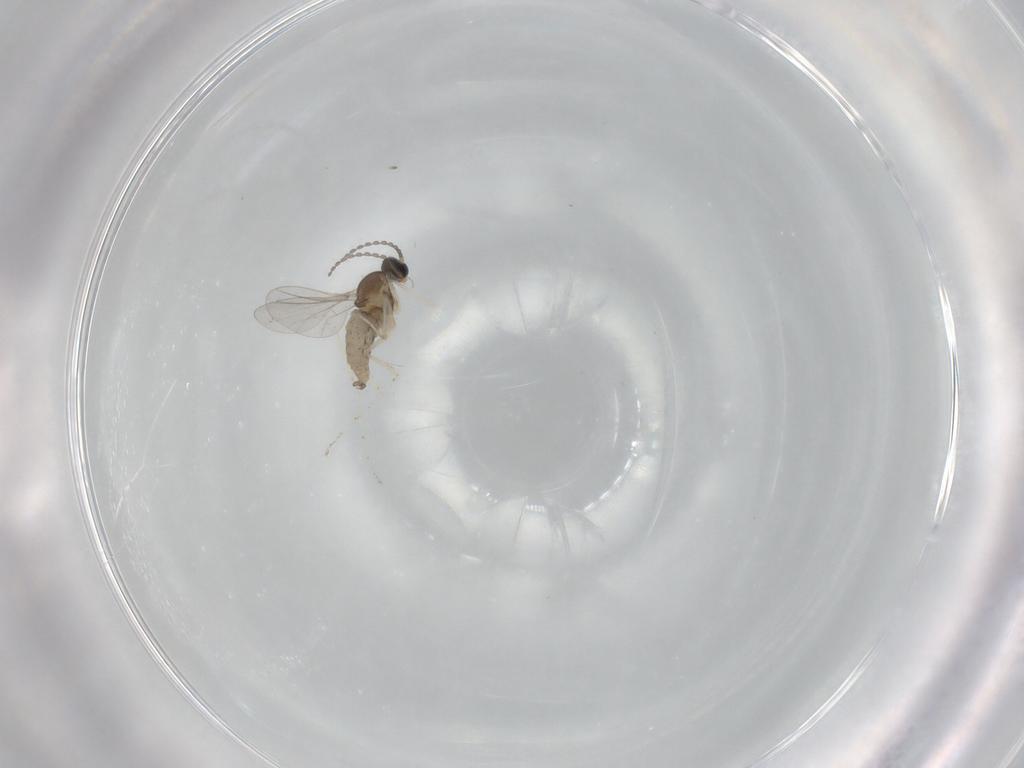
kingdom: Animalia
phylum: Arthropoda
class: Insecta
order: Diptera
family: Cecidomyiidae
